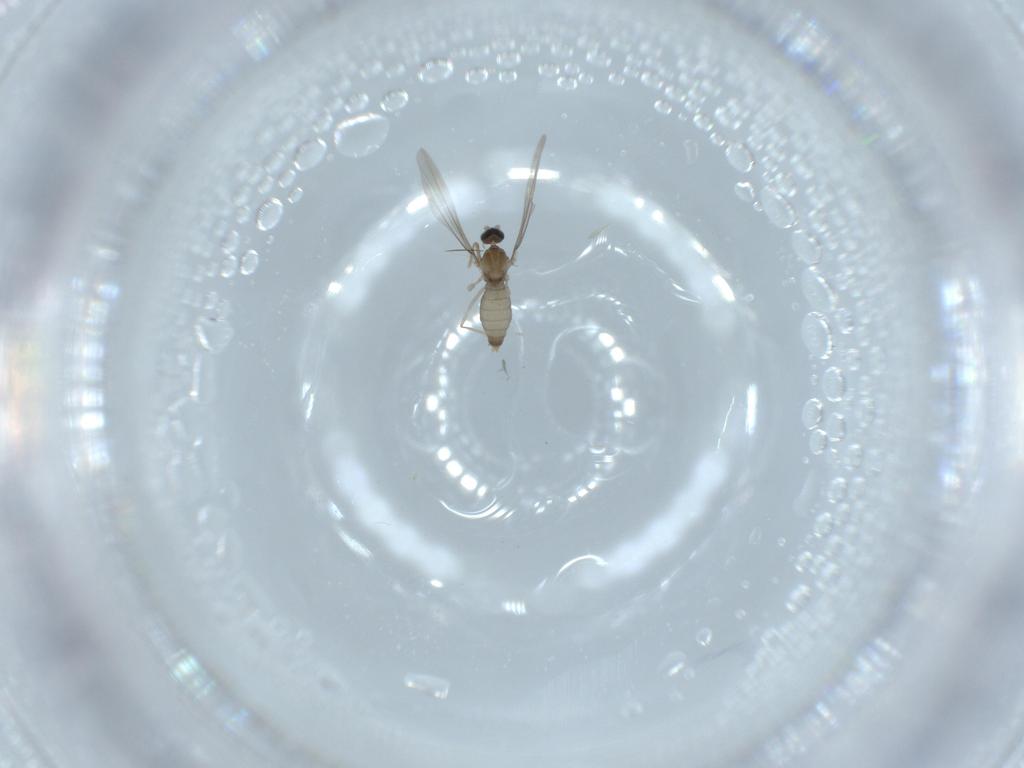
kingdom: Animalia
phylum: Arthropoda
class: Insecta
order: Diptera
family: Cecidomyiidae
